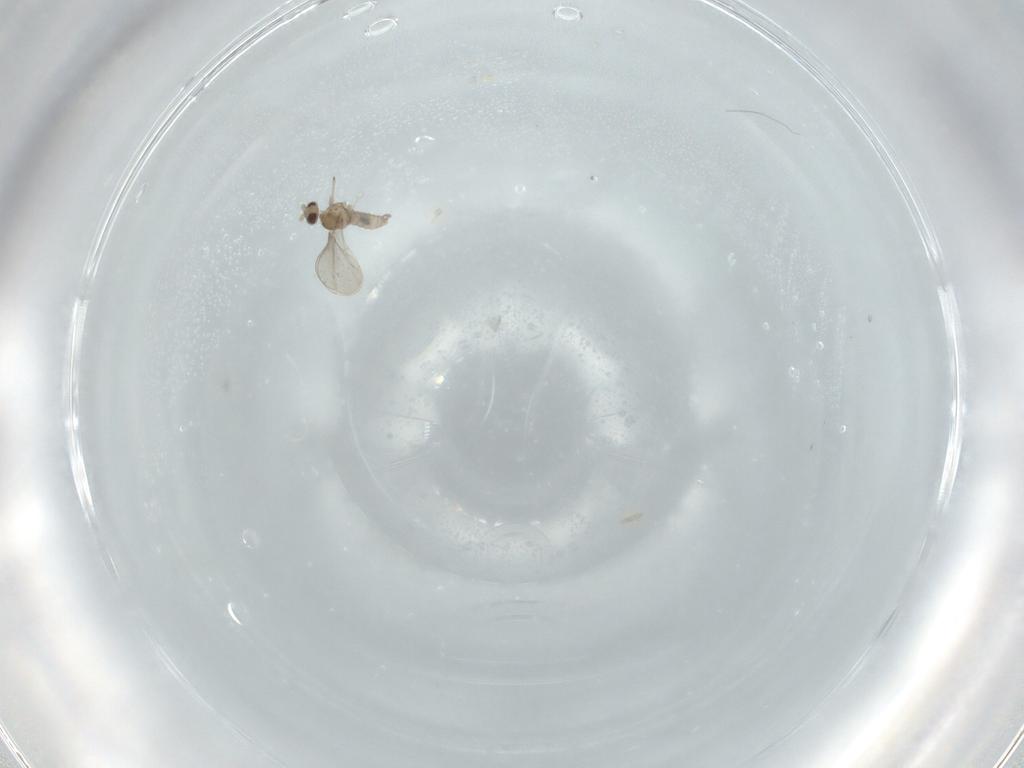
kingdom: Animalia
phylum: Arthropoda
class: Insecta
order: Diptera
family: Cecidomyiidae
